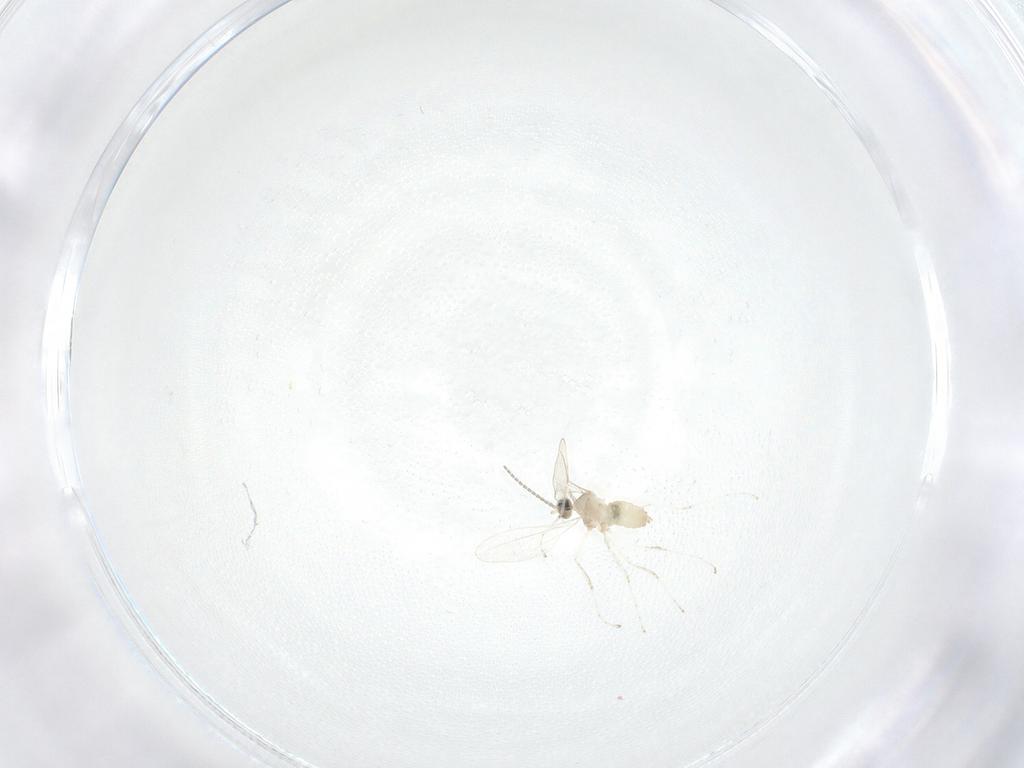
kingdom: Animalia
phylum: Arthropoda
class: Insecta
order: Diptera
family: Cecidomyiidae
